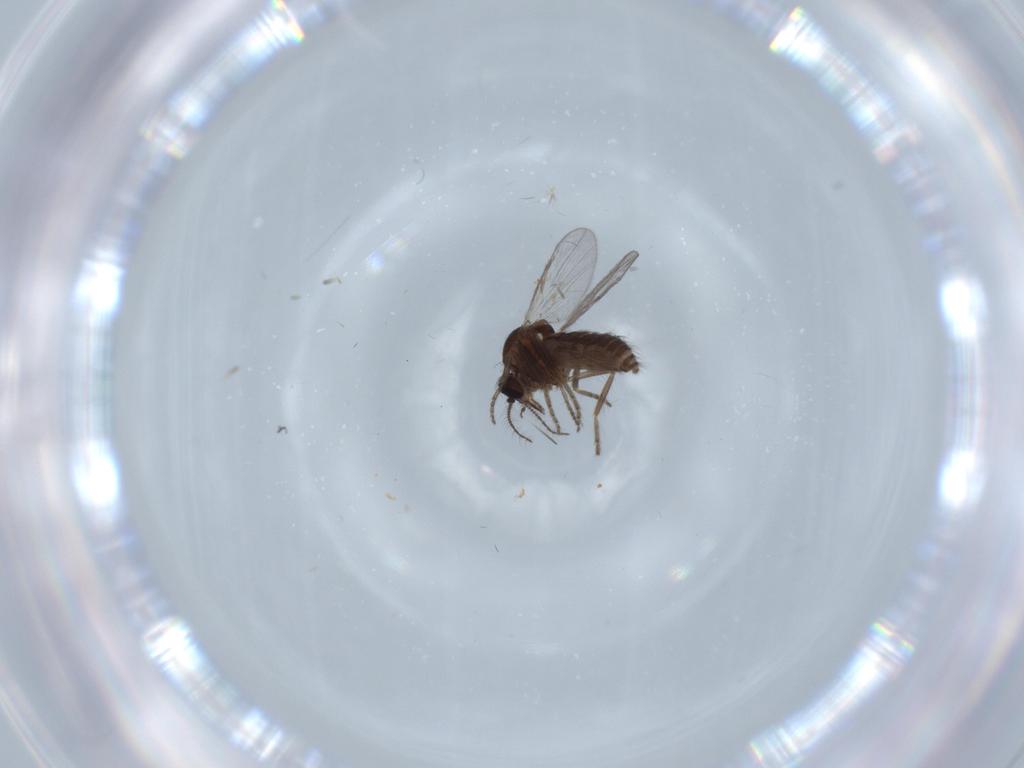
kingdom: Animalia
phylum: Arthropoda
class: Insecta
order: Diptera
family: Ceratopogonidae
